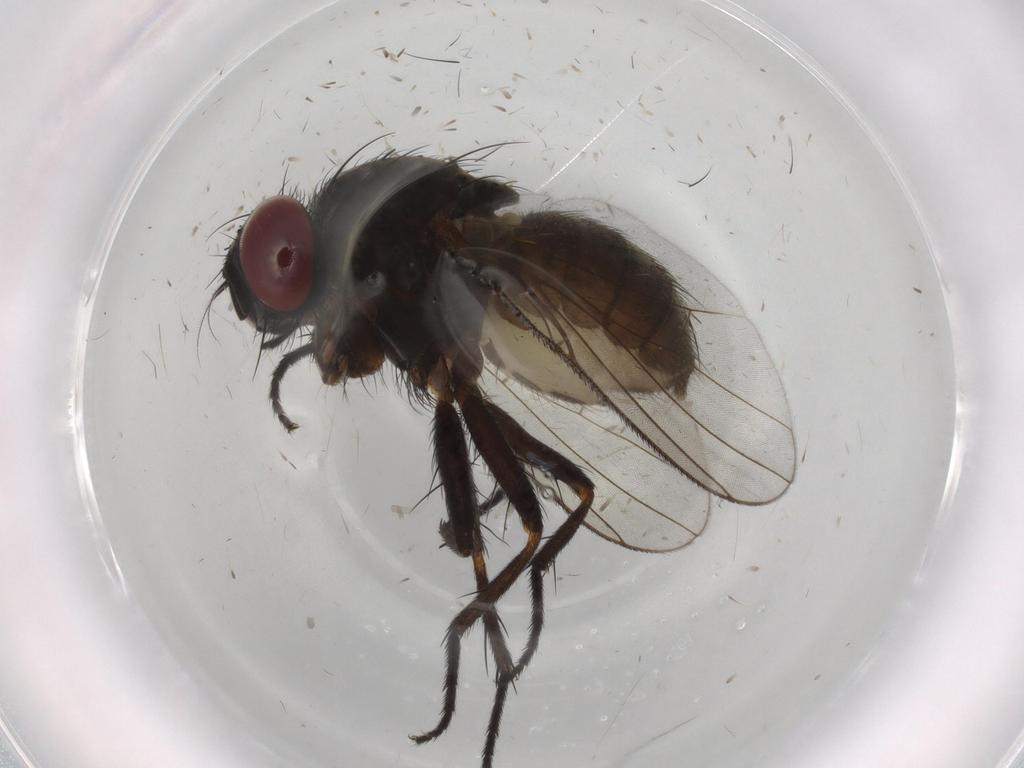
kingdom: Animalia
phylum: Arthropoda
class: Insecta
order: Diptera
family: Muscidae
